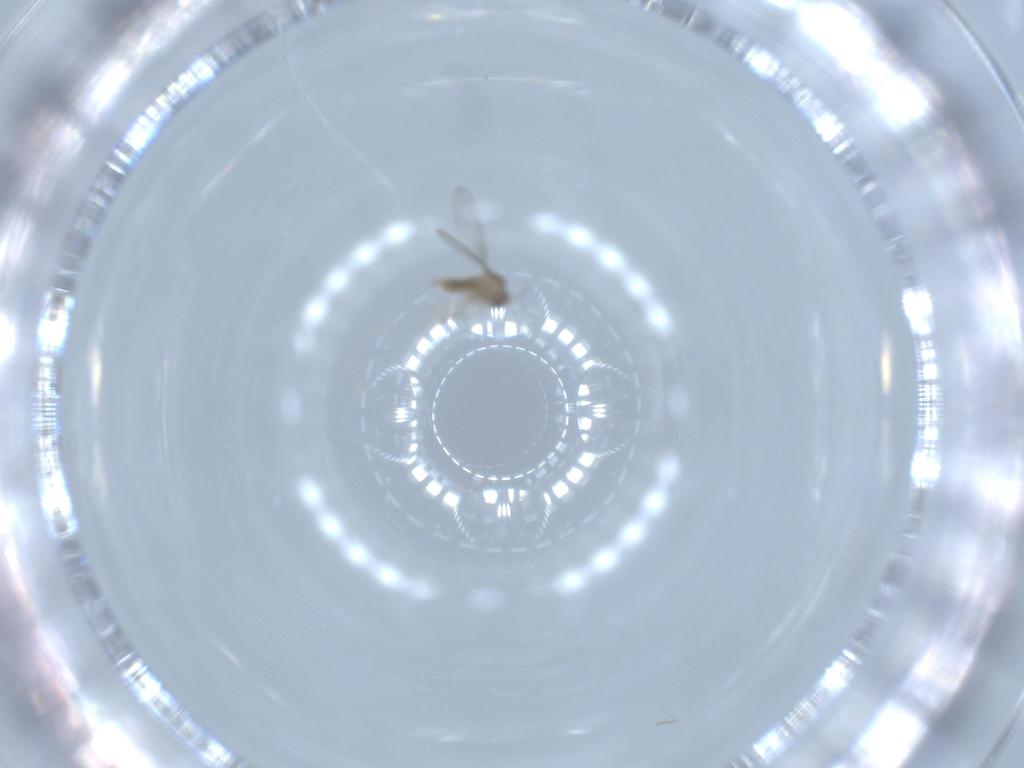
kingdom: Animalia
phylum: Arthropoda
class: Insecta
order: Diptera
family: Cecidomyiidae
